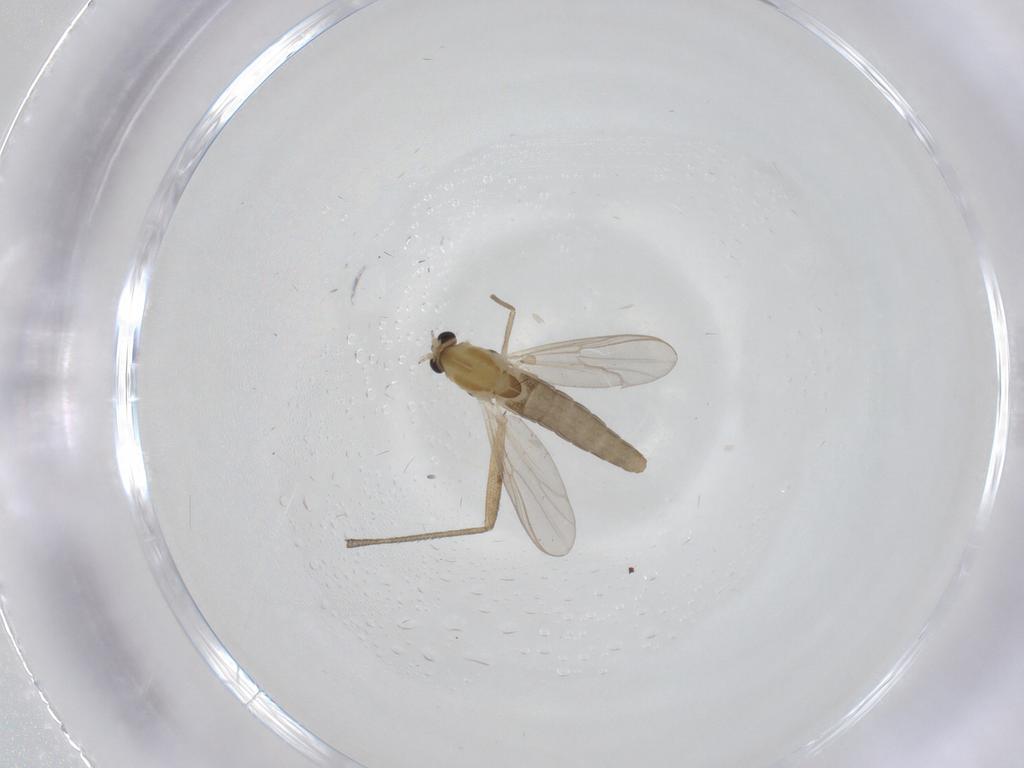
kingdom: Animalia
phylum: Arthropoda
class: Insecta
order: Diptera
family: Chironomidae
